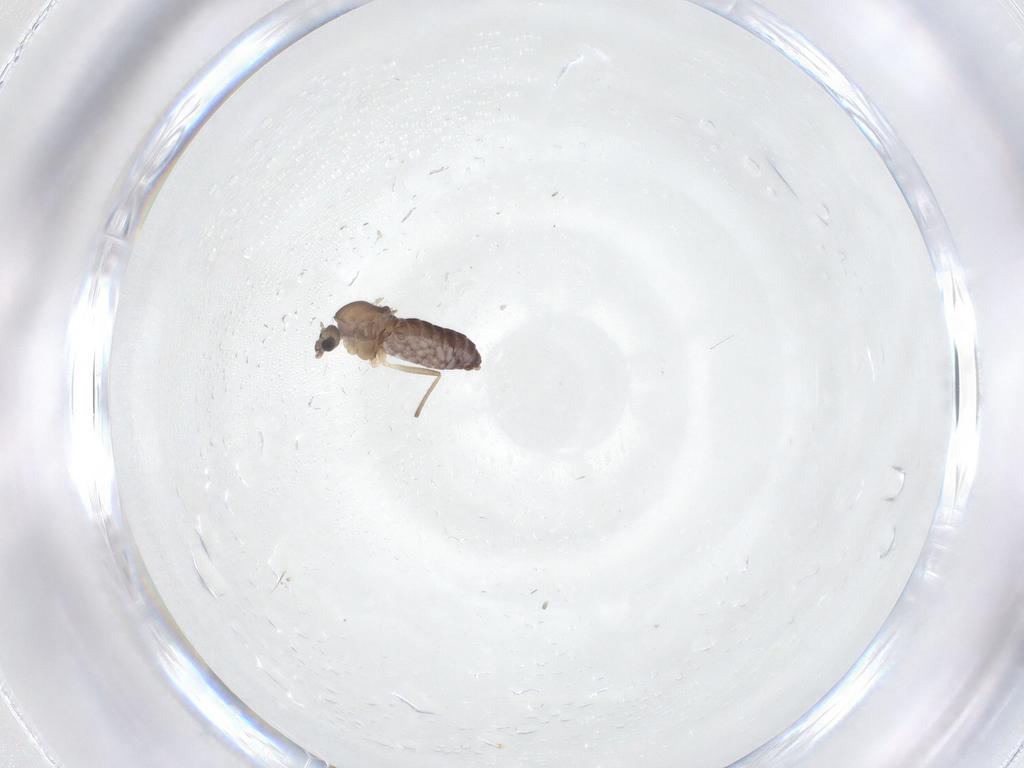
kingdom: Animalia
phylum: Arthropoda
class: Insecta
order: Diptera
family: Chironomidae
